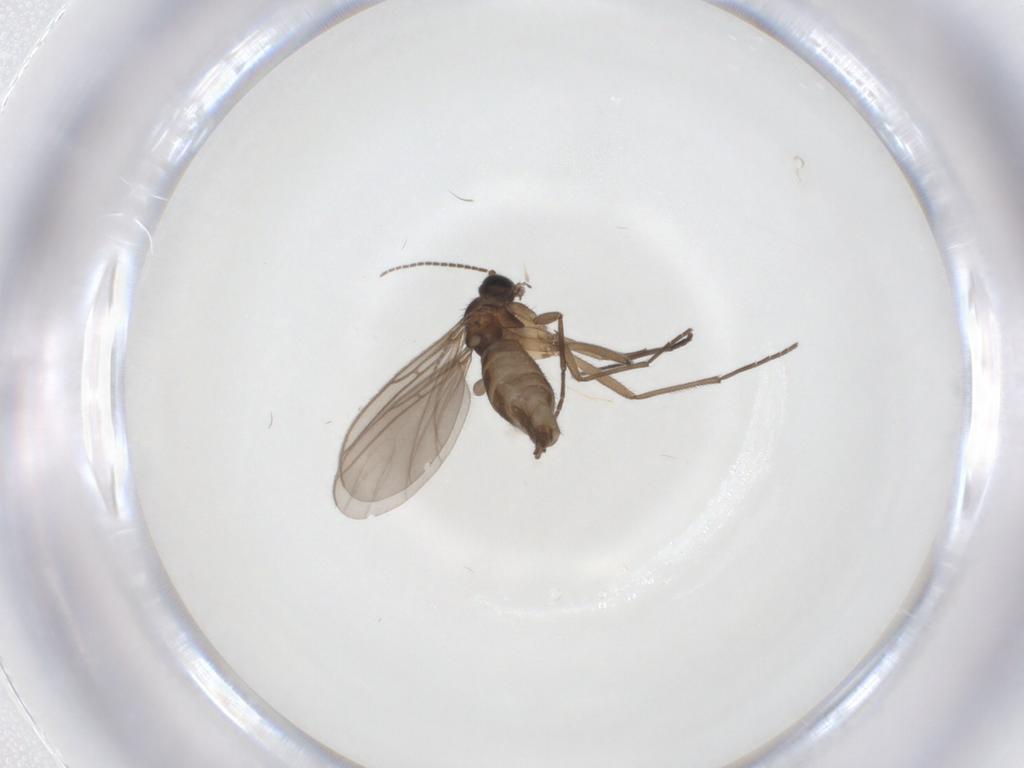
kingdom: Animalia
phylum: Arthropoda
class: Insecta
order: Diptera
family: Sciaridae
